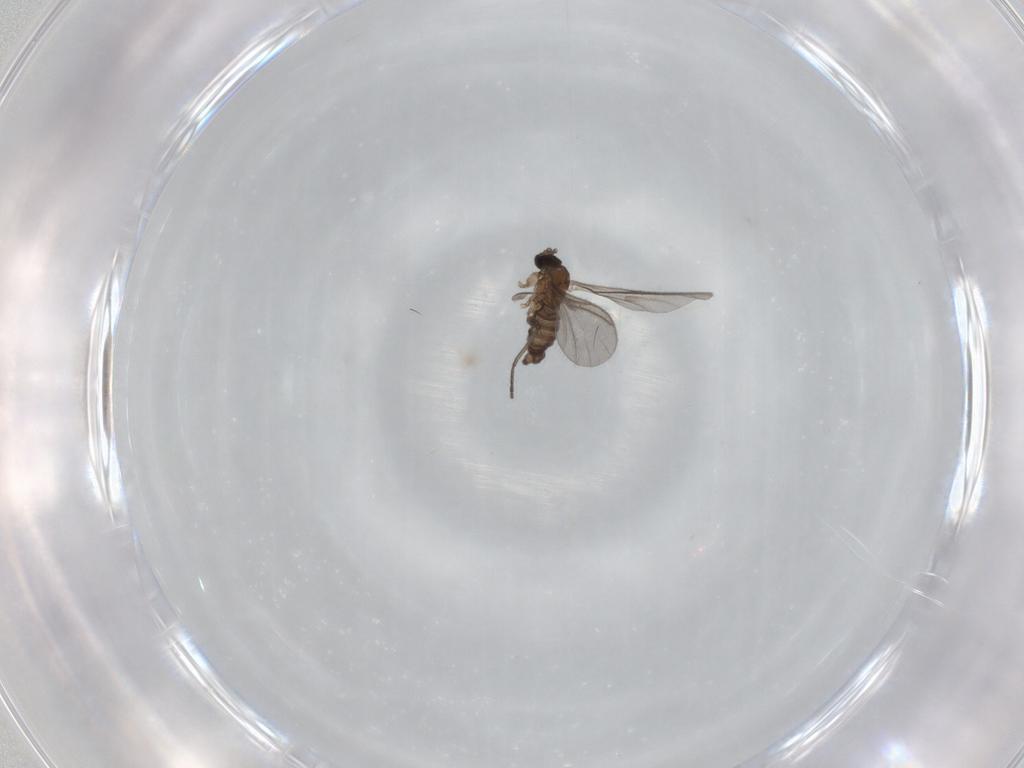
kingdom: Animalia
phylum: Arthropoda
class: Insecta
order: Diptera
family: Sciaridae
